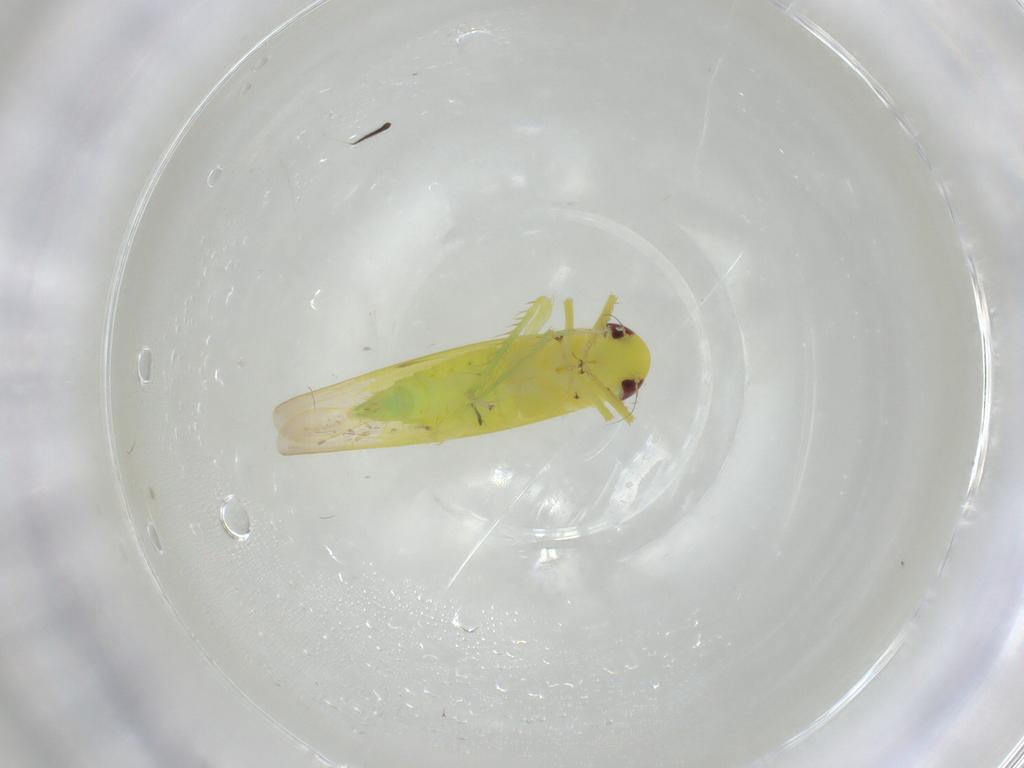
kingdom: Animalia
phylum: Arthropoda
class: Insecta
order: Hemiptera
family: Cicadellidae
